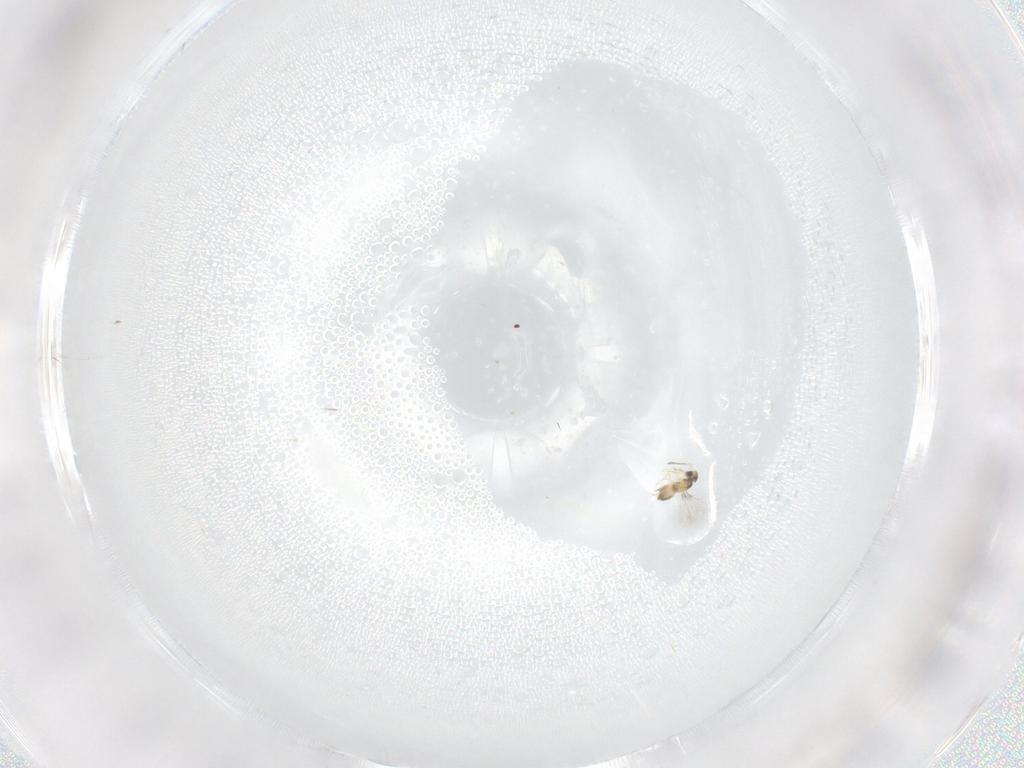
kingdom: Animalia
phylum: Arthropoda
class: Insecta
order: Hymenoptera
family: Mymaridae
